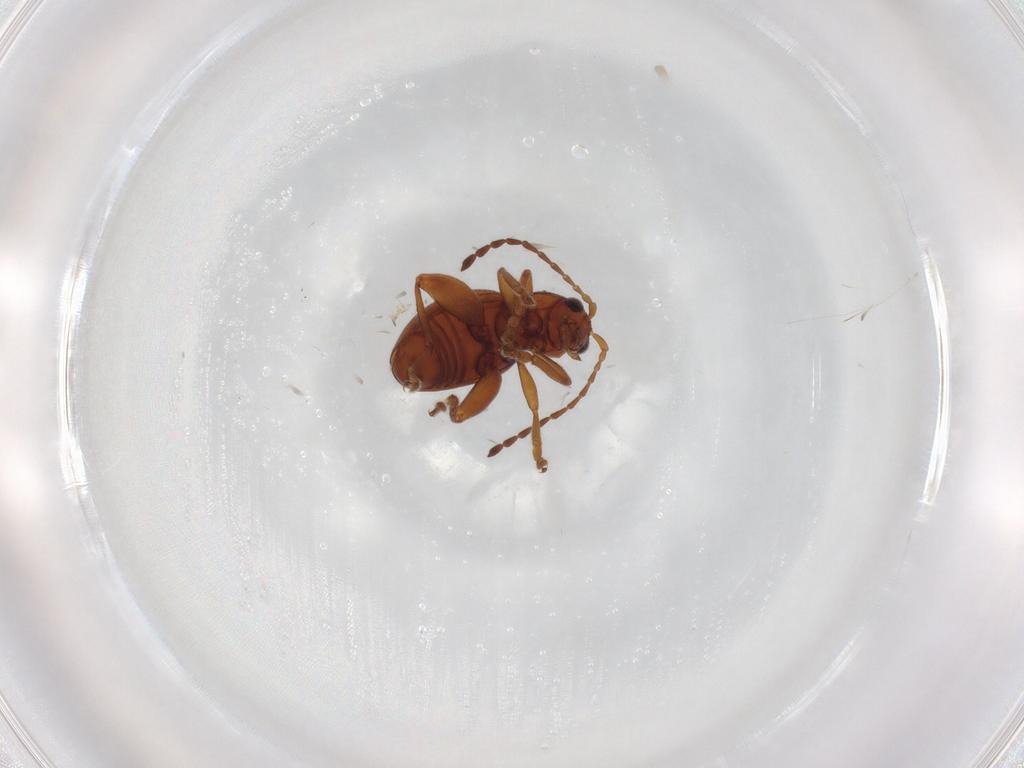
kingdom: Animalia
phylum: Arthropoda
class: Insecta
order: Coleoptera
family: Chrysomelidae
